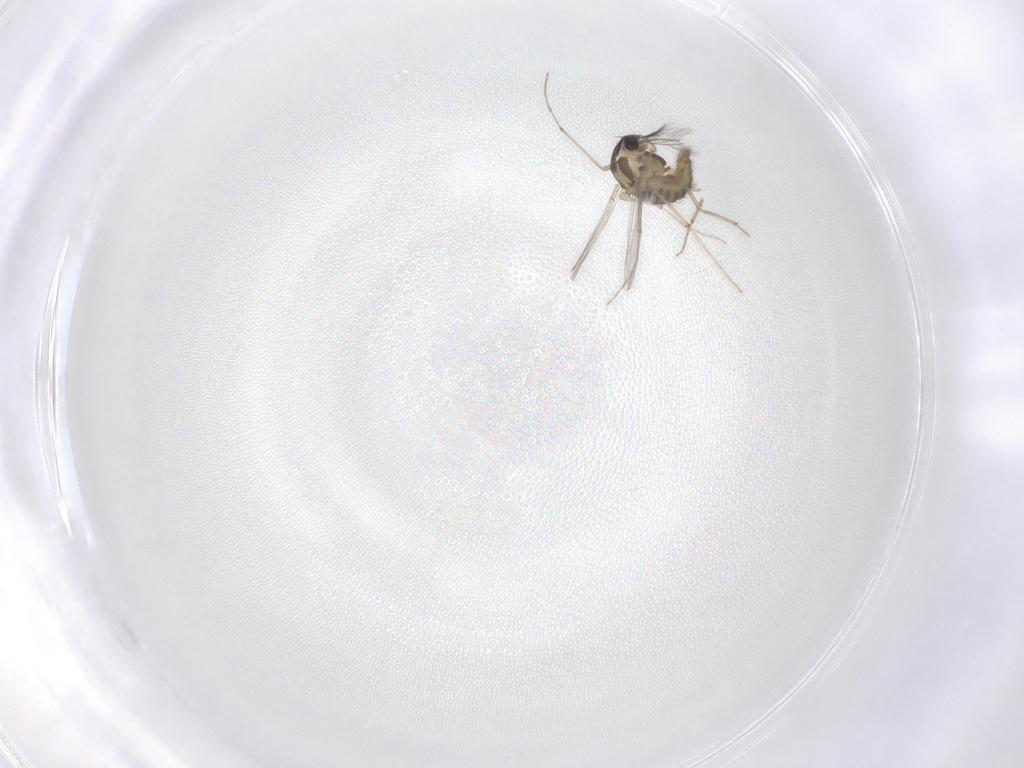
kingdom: Animalia
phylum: Arthropoda
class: Insecta
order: Diptera
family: Chironomidae
